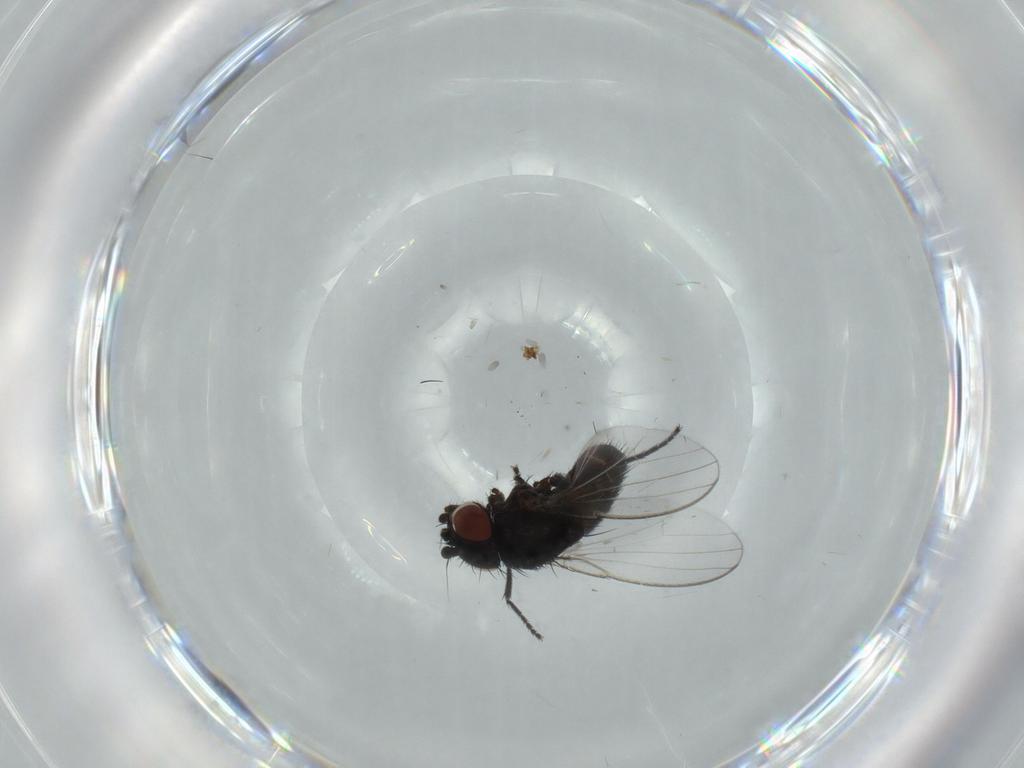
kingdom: Animalia
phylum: Arthropoda
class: Insecta
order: Diptera
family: Milichiidae
